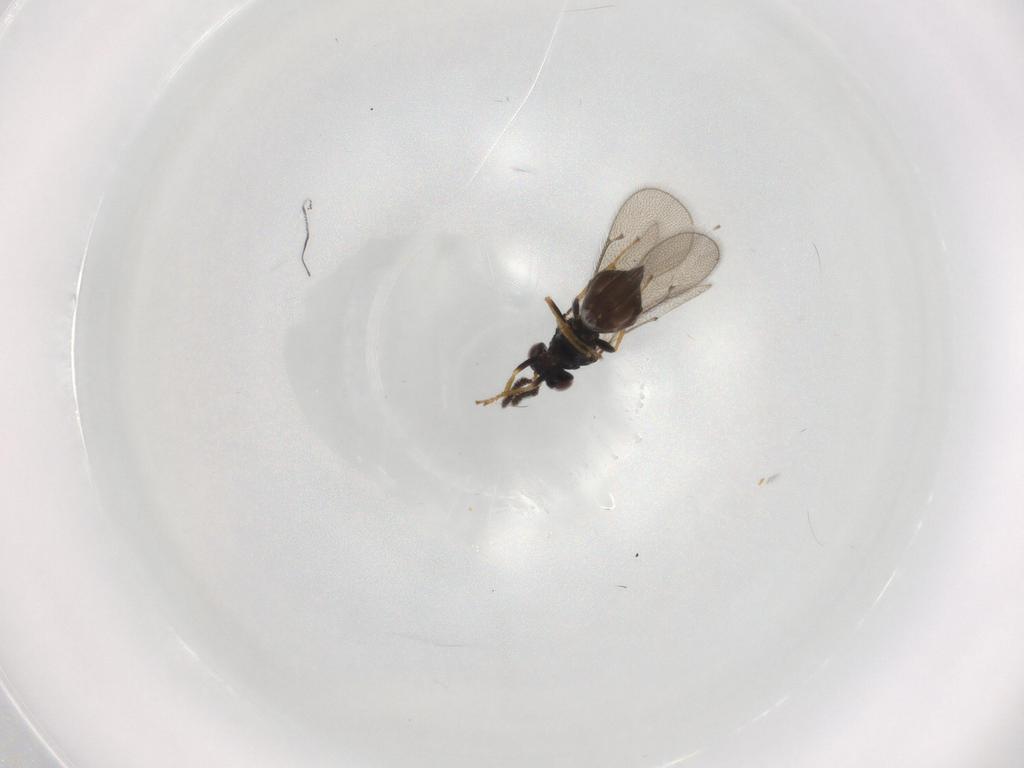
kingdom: Animalia
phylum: Arthropoda
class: Insecta
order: Hymenoptera
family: Eulophidae
